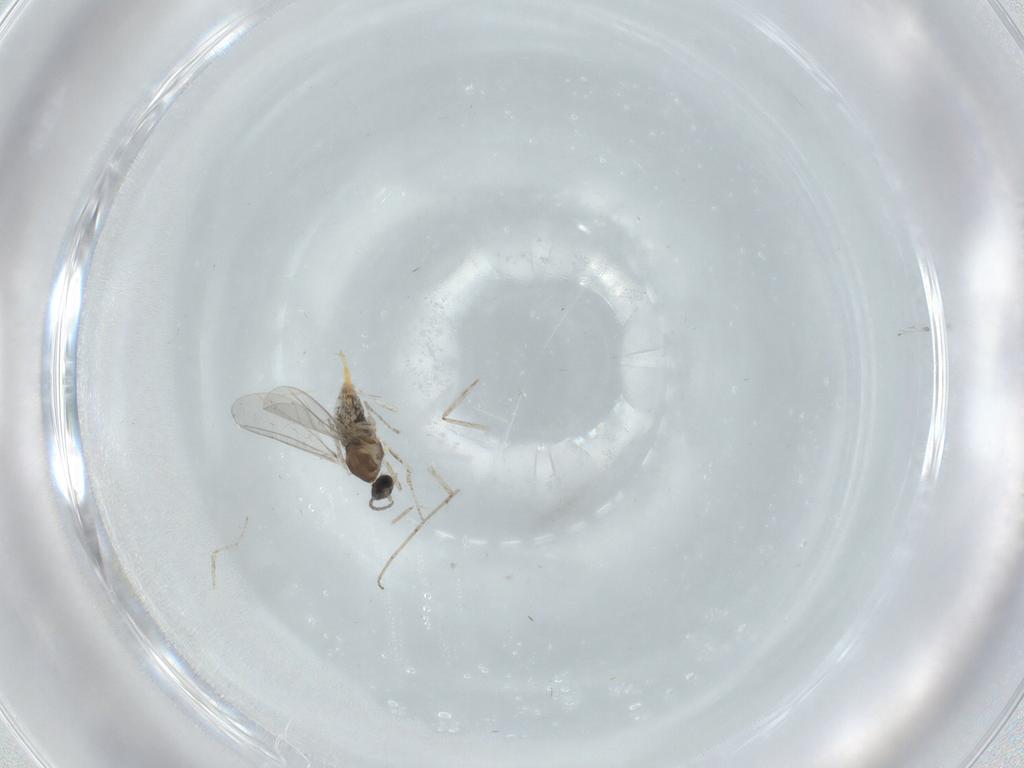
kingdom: Animalia
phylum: Arthropoda
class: Insecta
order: Diptera
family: Cecidomyiidae
